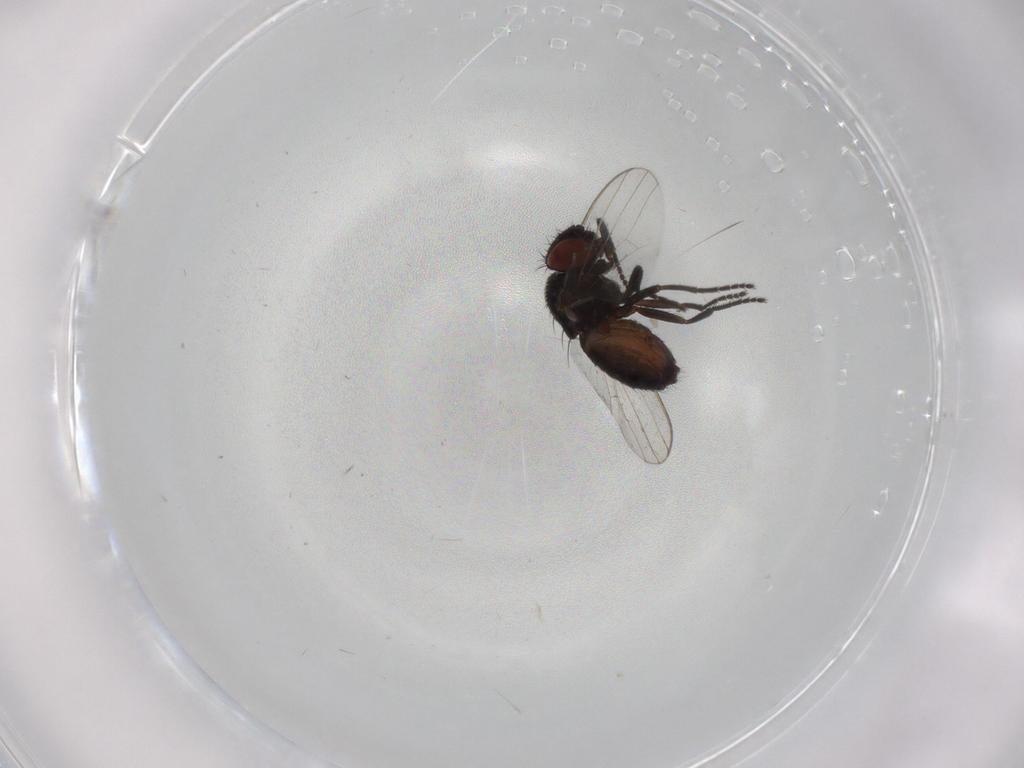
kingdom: Animalia
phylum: Arthropoda
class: Insecta
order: Diptera
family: Milichiidae
